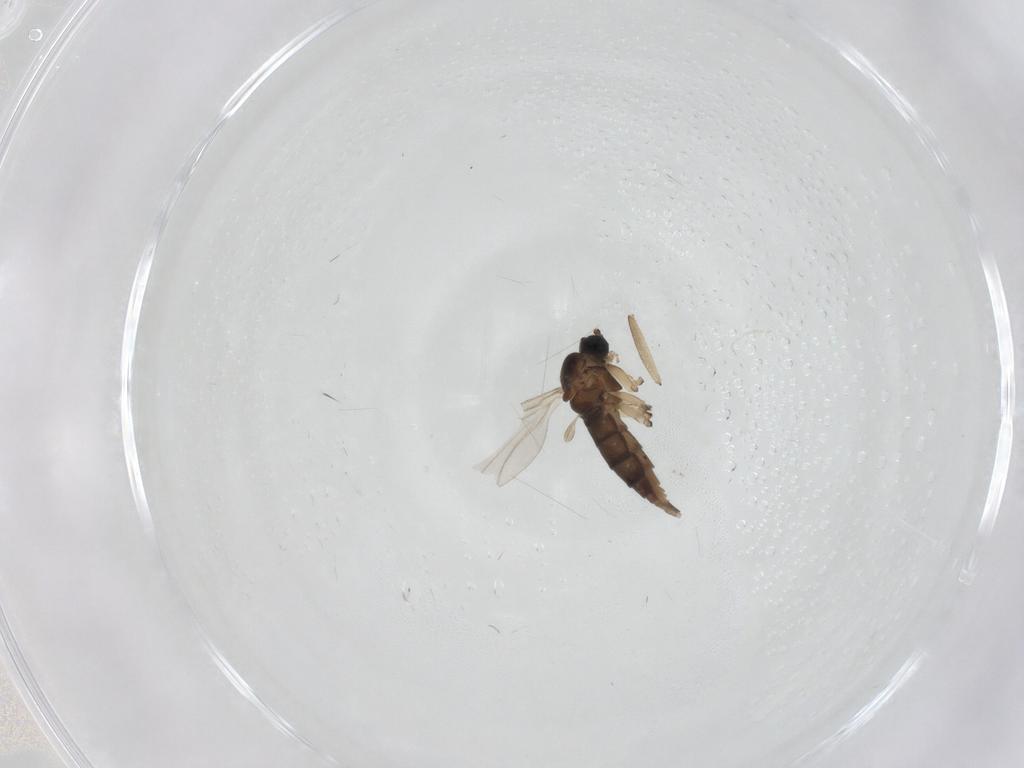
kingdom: Animalia
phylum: Arthropoda
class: Insecta
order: Diptera
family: Sciaridae
